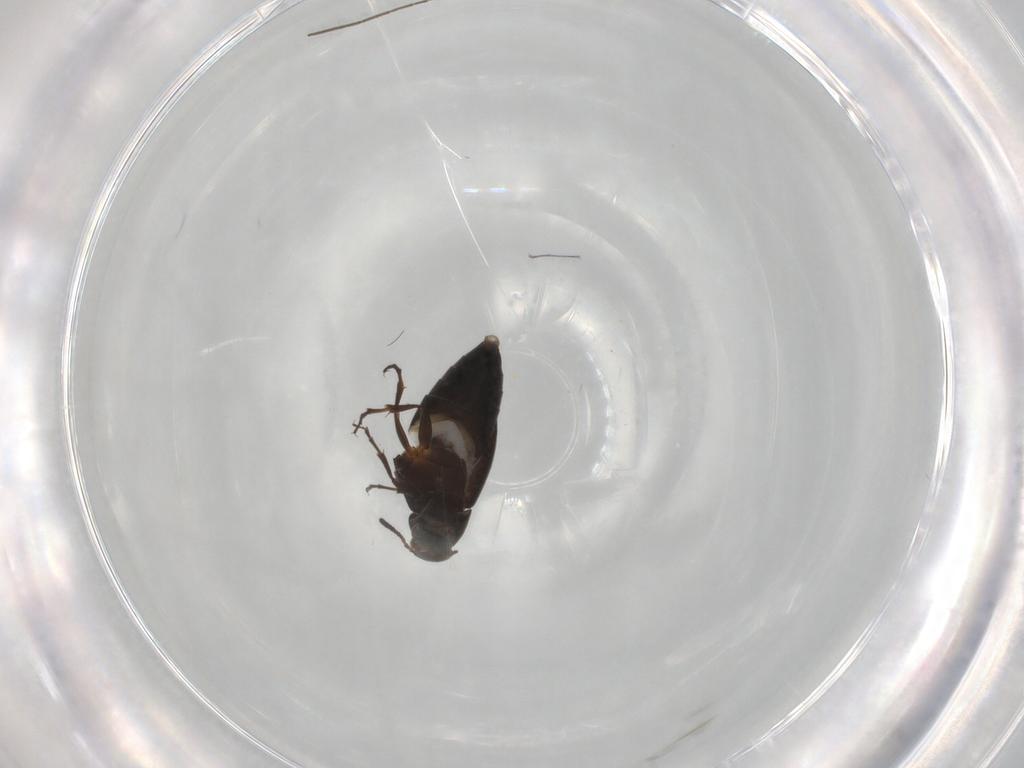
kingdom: Animalia
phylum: Arthropoda
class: Insecta
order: Coleoptera
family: Scraptiidae
